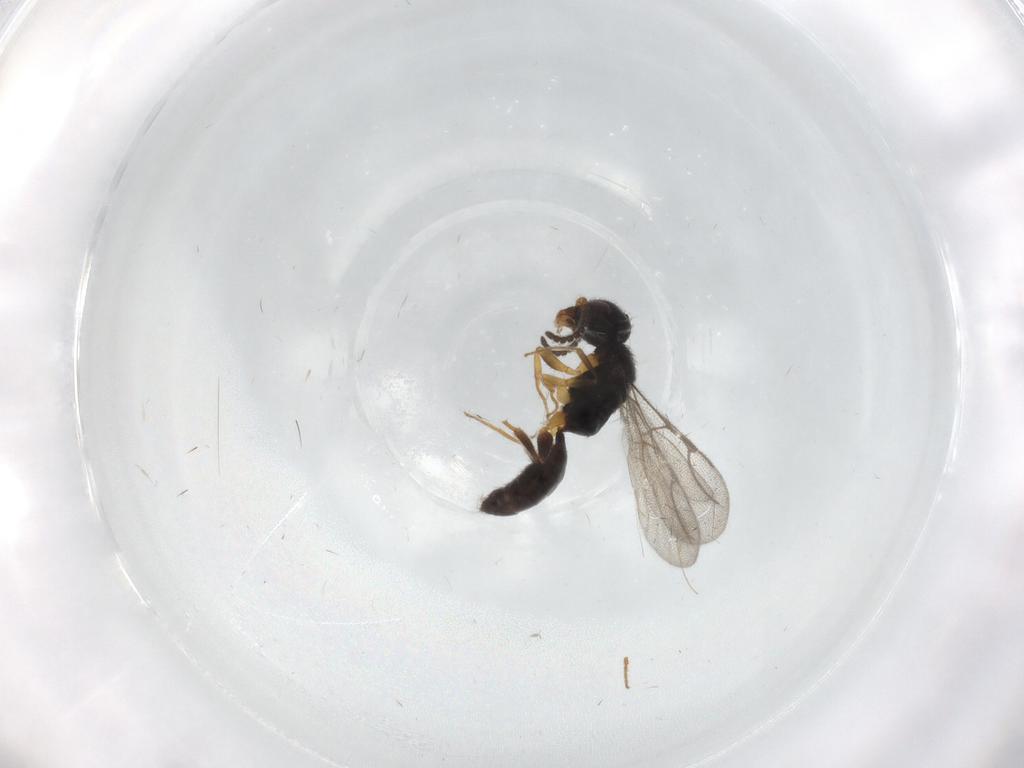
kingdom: Animalia
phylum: Arthropoda
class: Insecta
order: Hymenoptera
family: Bethylidae
